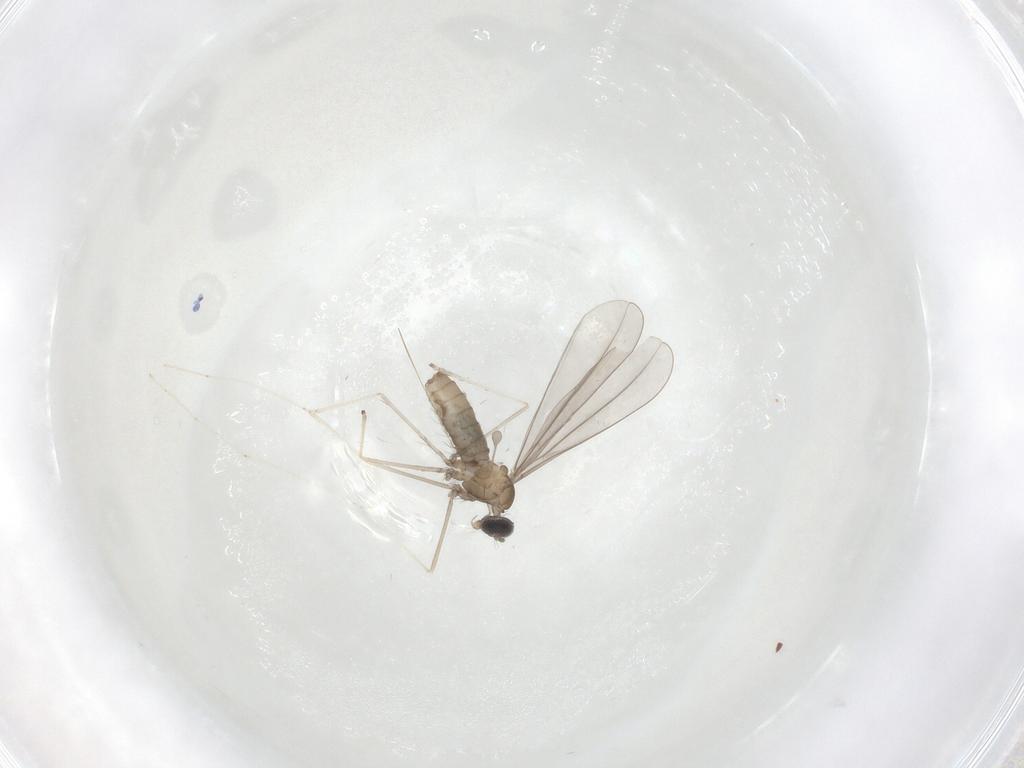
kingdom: Animalia
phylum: Arthropoda
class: Insecta
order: Diptera
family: Cecidomyiidae
